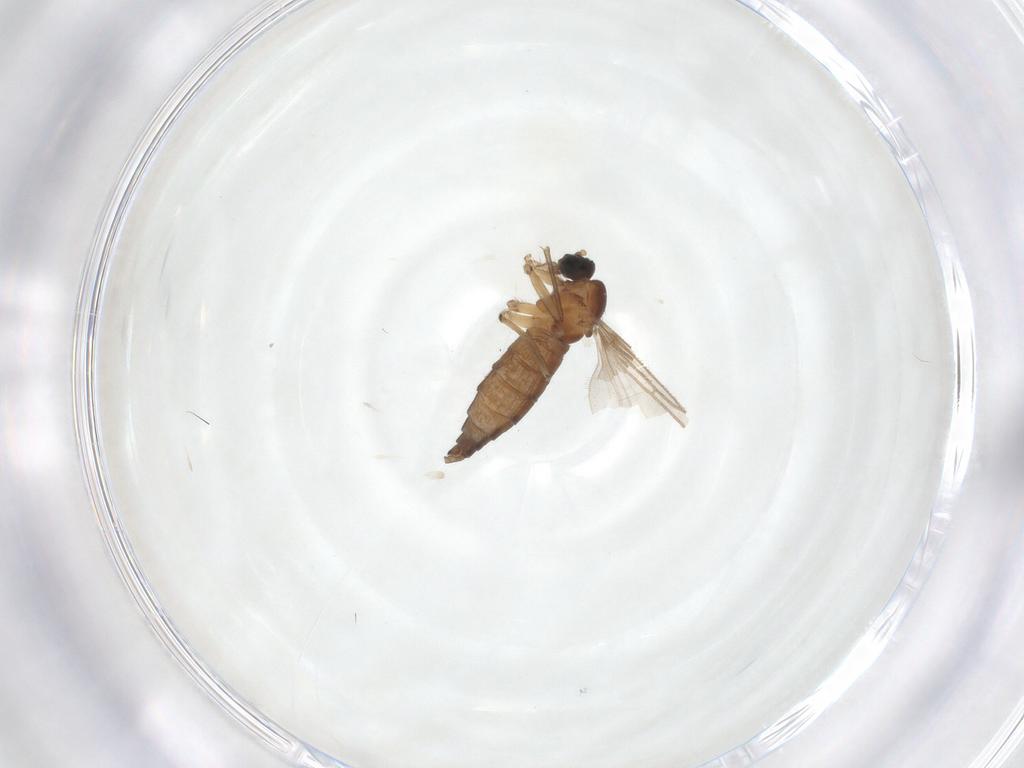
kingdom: Animalia
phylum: Arthropoda
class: Insecta
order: Diptera
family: Sciaridae
